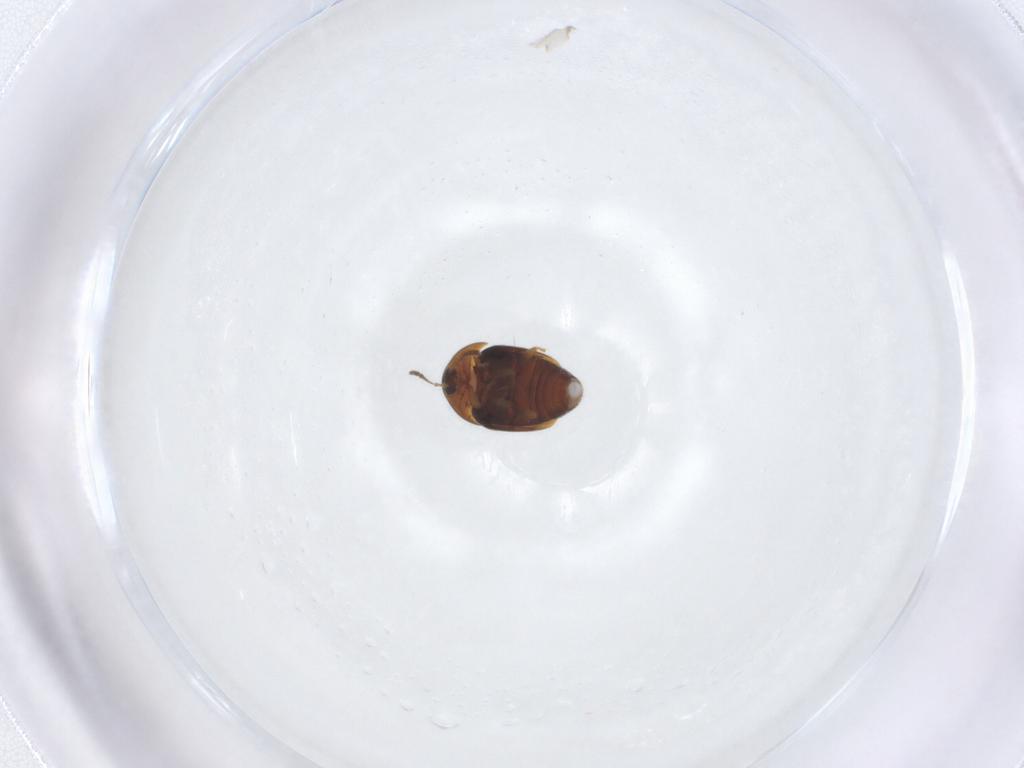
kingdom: Animalia
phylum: Arthropoda
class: Insecta
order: Coleoptera
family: Corylophidae
